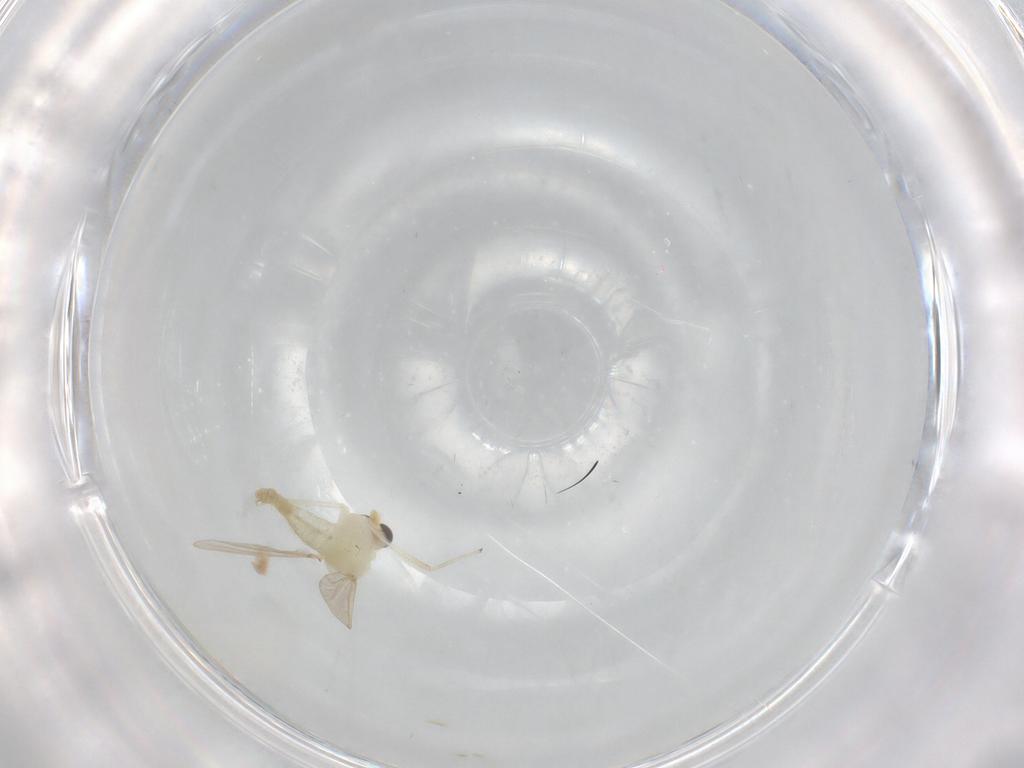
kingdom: Animalia
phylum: Arthropoda
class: Insecta
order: Diptera
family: Chironomidae
